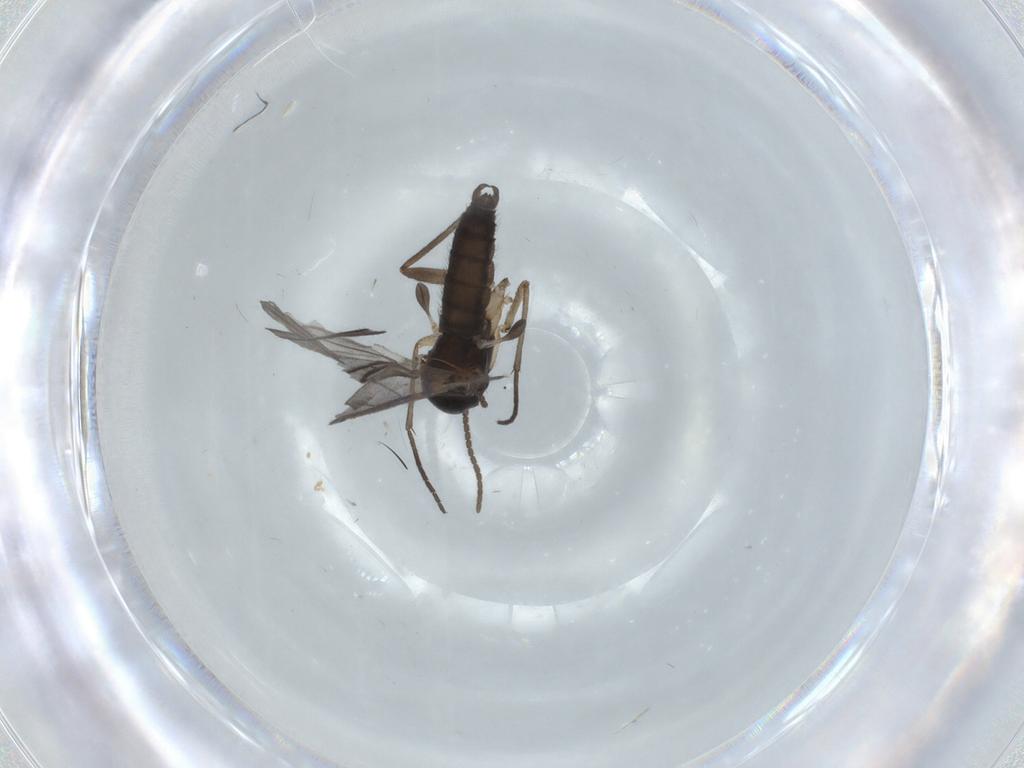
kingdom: Animalia
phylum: Arthropoda
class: Insecta
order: Diptera
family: Sciaridae
